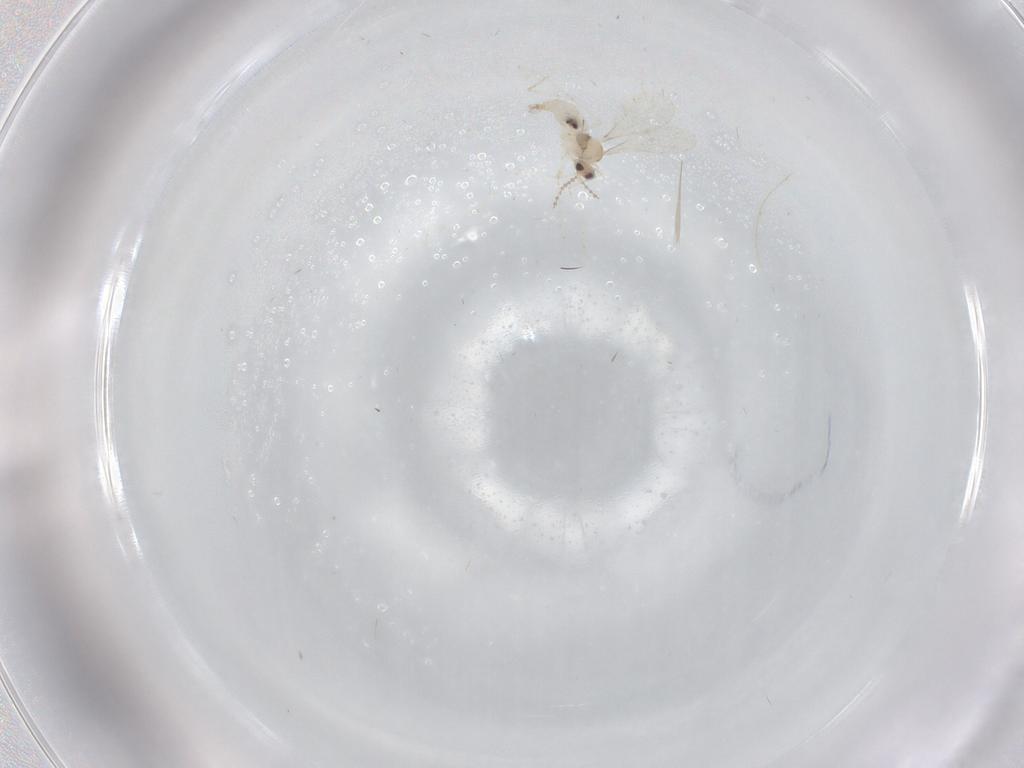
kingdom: Animalia
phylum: Arthropoda
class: Insecta
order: Diptera
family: Cecidomyiidae
